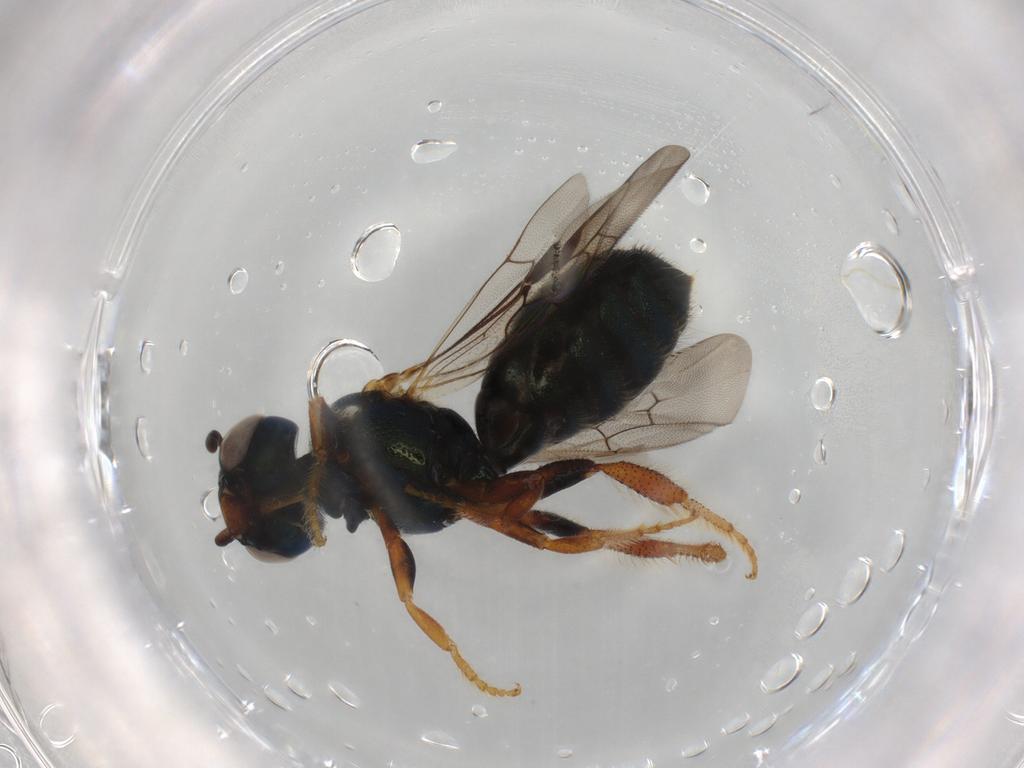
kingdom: Animalia
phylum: Arthropoda
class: Insecta
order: Hymenoptera
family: Apidae
